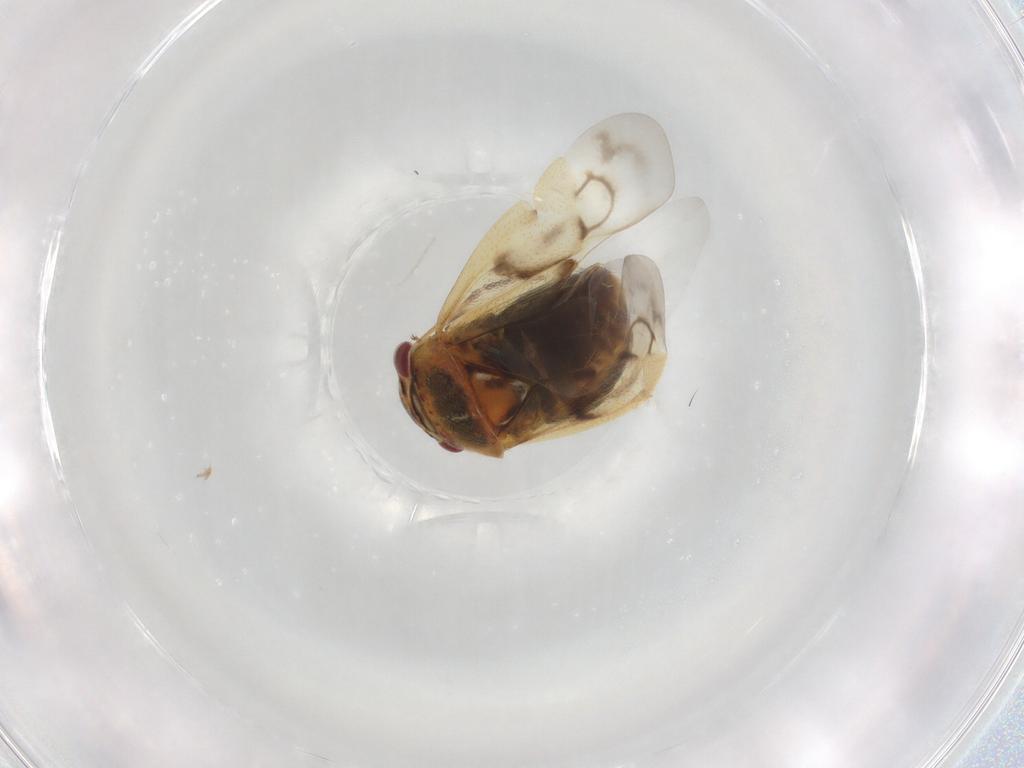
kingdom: Animalia
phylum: Arthropoda
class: Insecta
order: Hemiptera
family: Miridae
